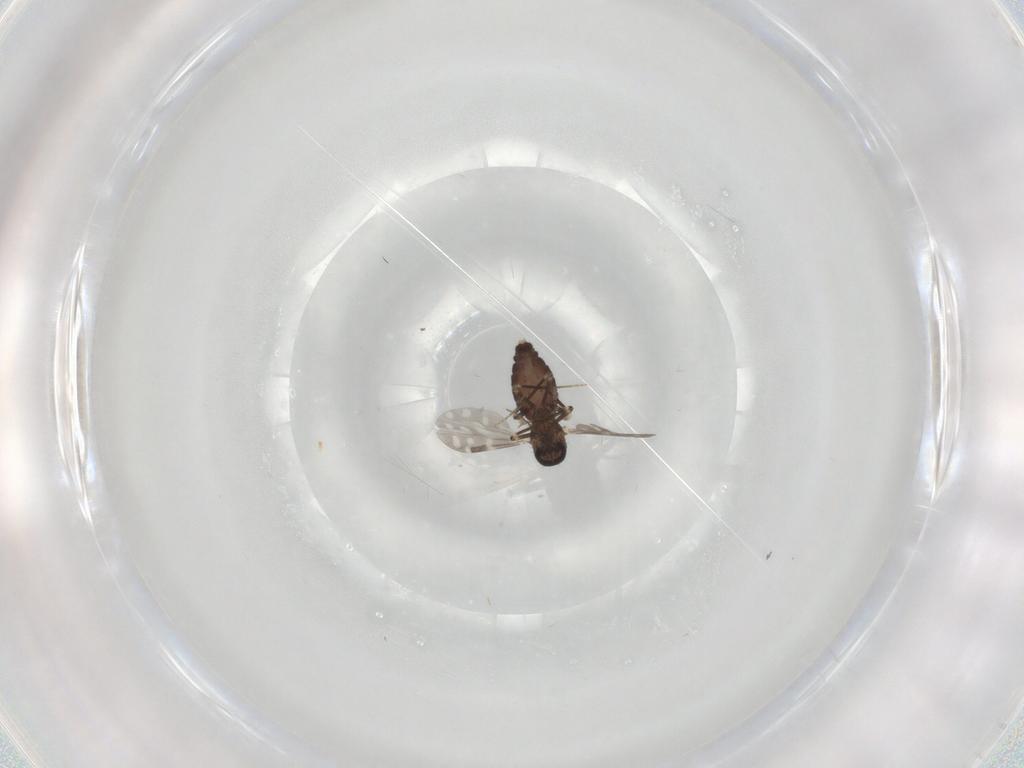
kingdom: Animalia
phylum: Arthropoda
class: Insecta
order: Diptera
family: Cecidomyiidae
